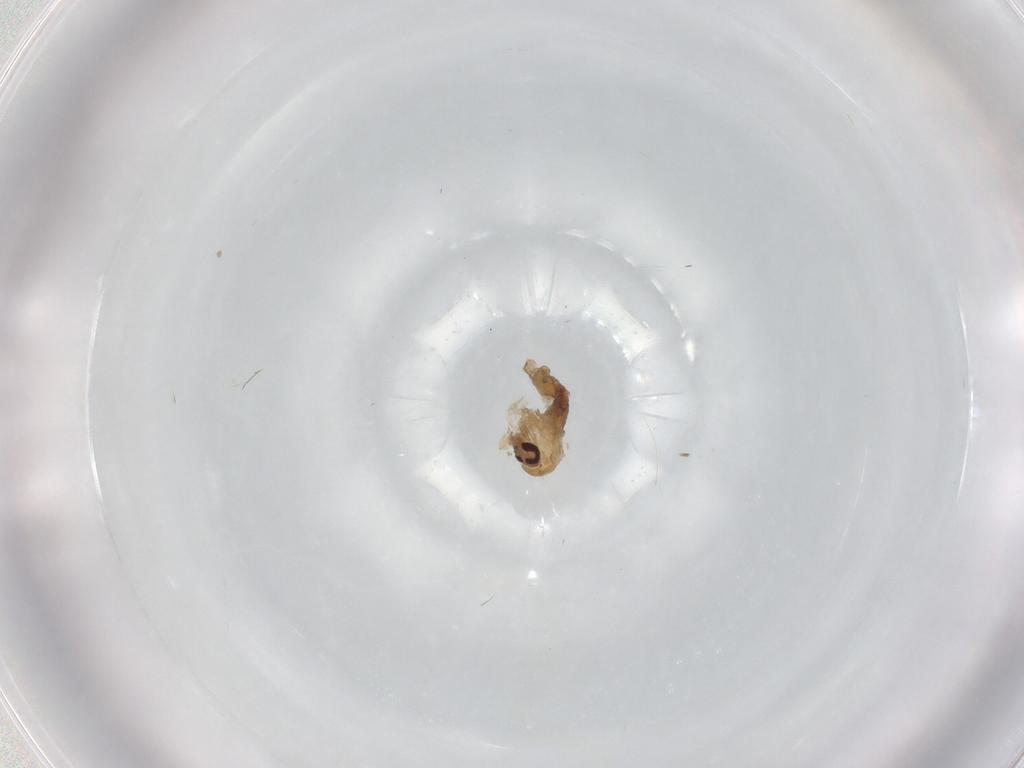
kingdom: Animalia
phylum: Arthropoda
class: Insecta
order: Diptera
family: Psychodidae
